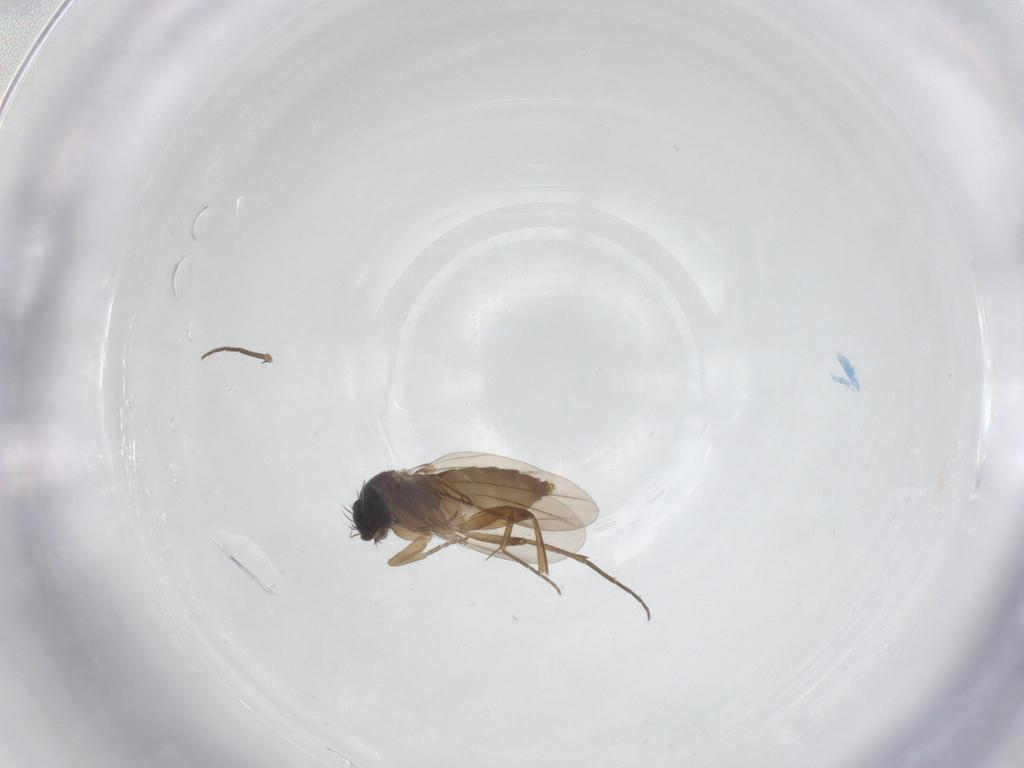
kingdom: Animalia
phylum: Arthropoda
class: Insecta
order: Diptera
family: Phoridae
